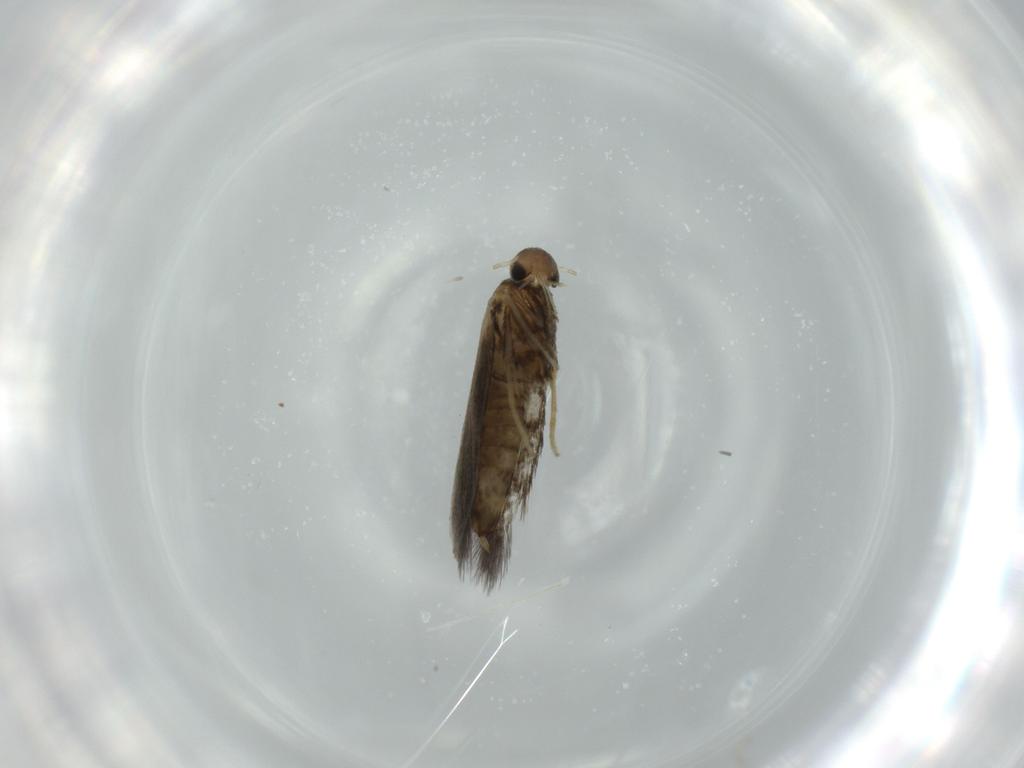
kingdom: Animalia
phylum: Arthropoda
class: Insecta
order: Lepidoptera
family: Heliozelidae
